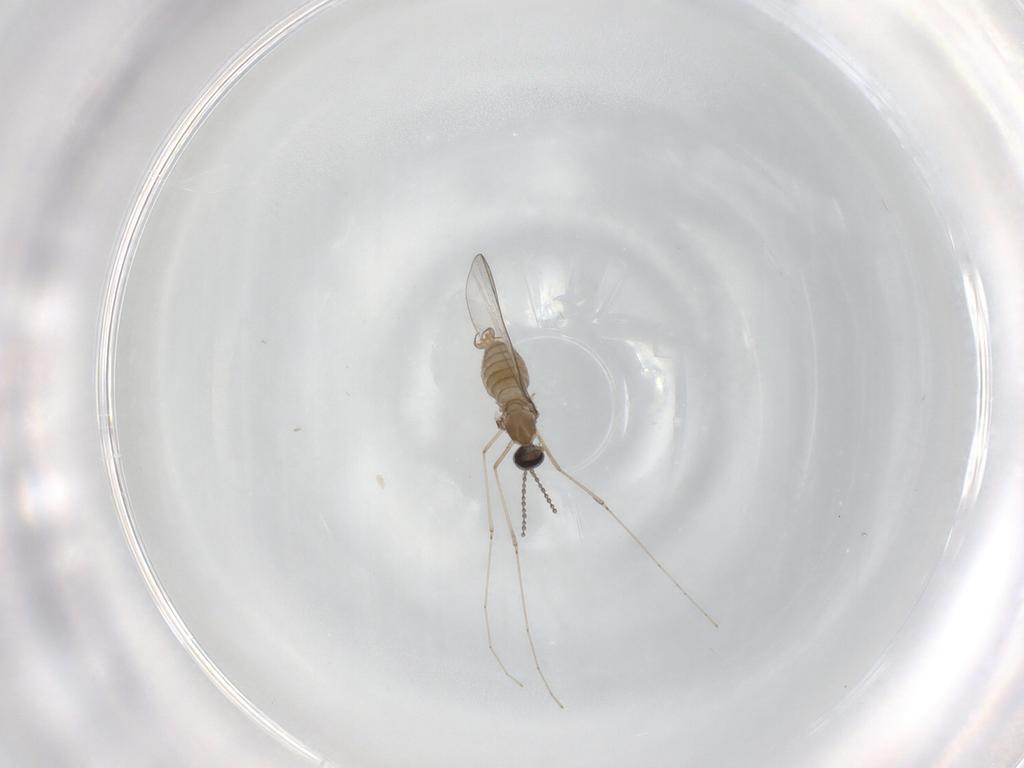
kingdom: Animalia
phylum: Arthropoda
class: Insecta
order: Diptera
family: Cecidomyiidae
